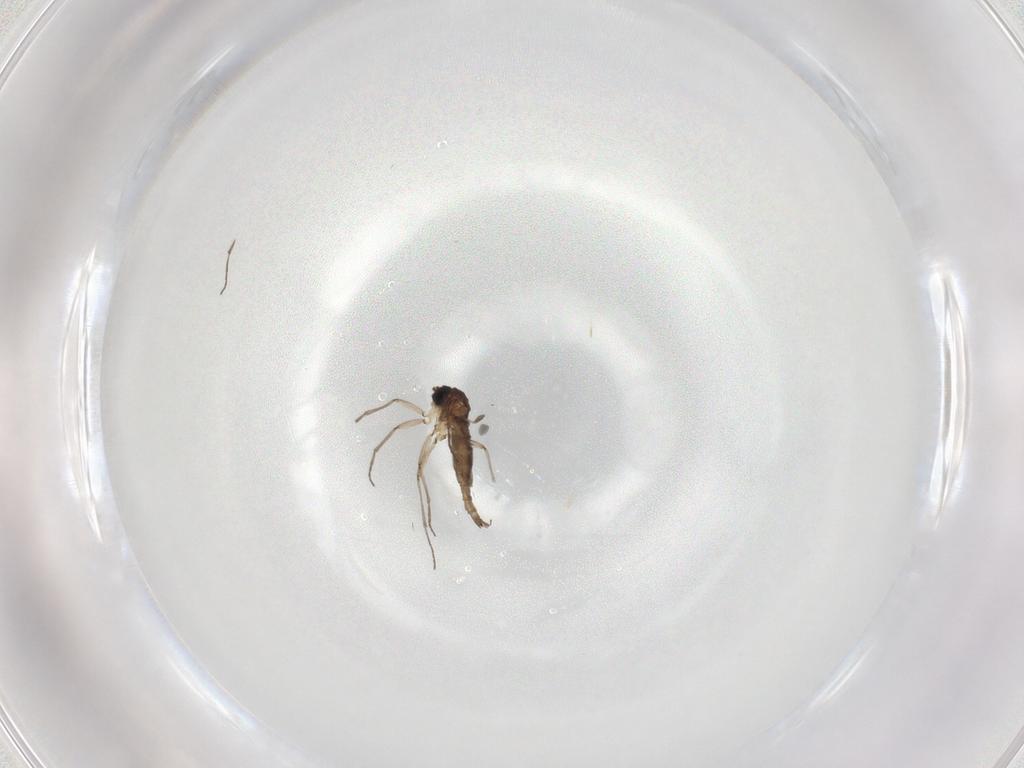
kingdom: Animalia
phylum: Arthropoda
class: Insecta
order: Diptera
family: Sciaridae
